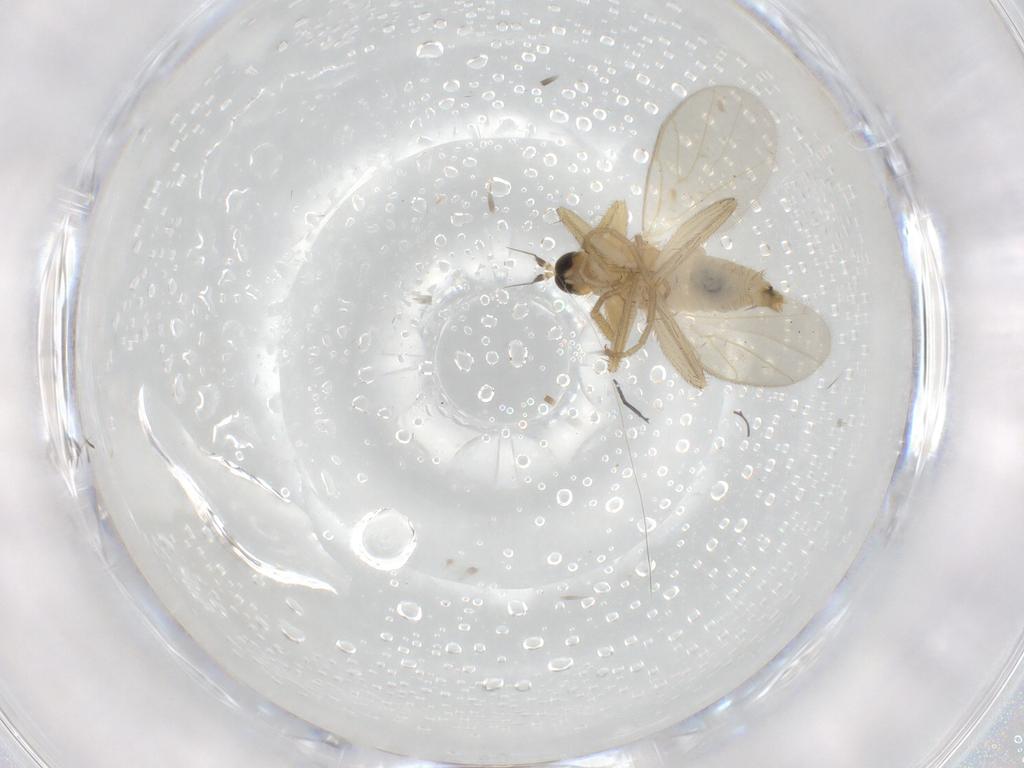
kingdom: Animalia
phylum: Arthropoda
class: Insecta
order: Diptera
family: Hybotidae
